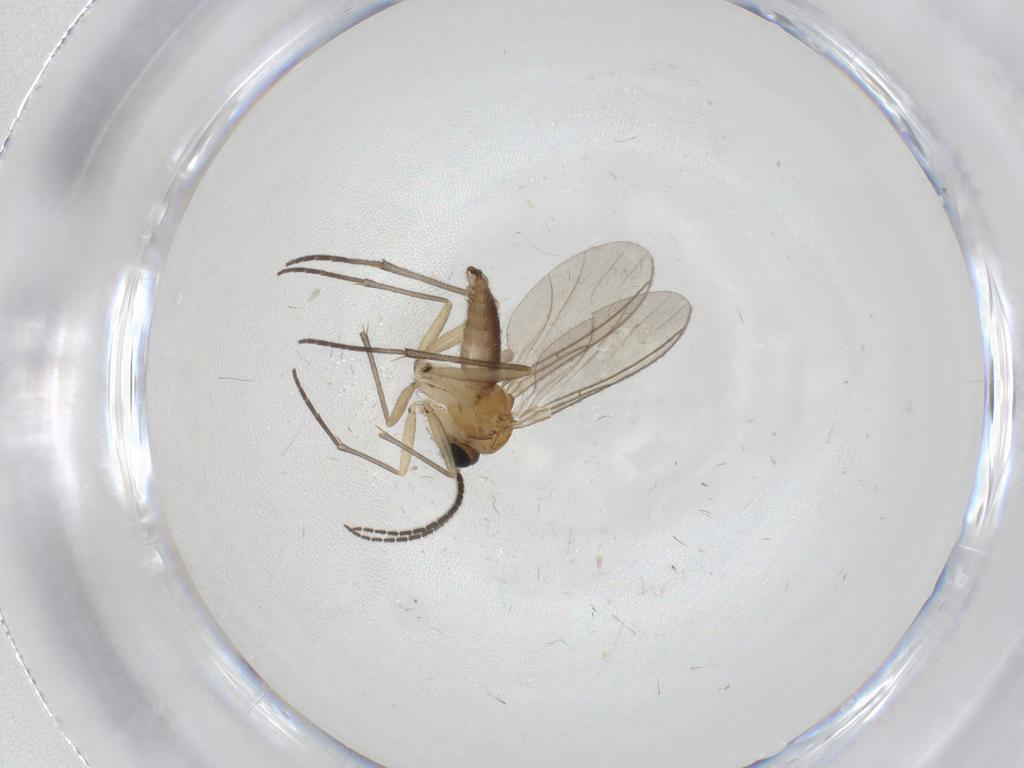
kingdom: Animalia
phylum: Arthropoda
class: Insecta
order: Diptera
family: Sciaridae
